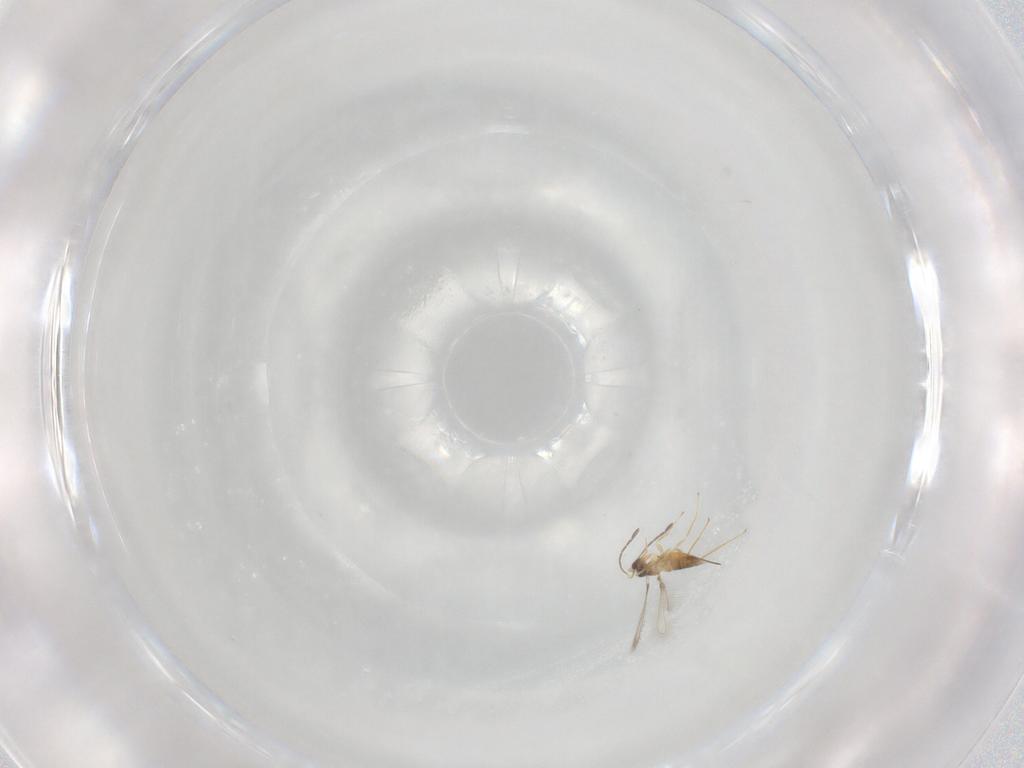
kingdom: Animalia
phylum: Arthropoda
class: Insecta
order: Hymenoptera
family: Mymaridae
